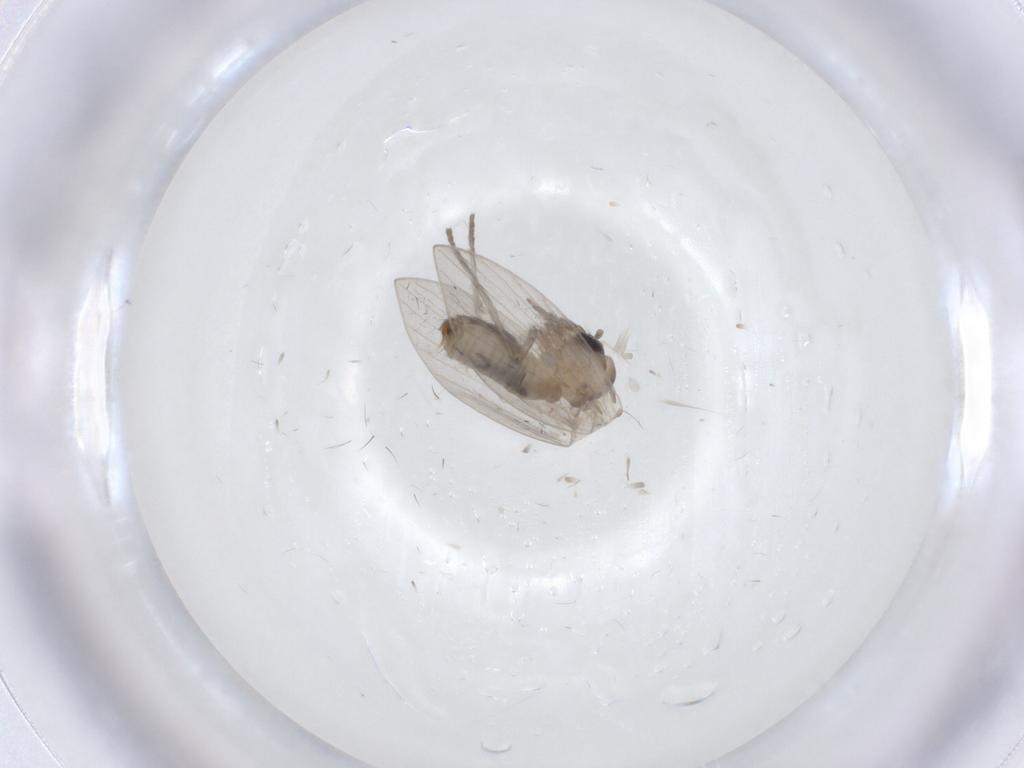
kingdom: Animalia
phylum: Arthropoda
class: Insecta
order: Diptera
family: Psychodidae
